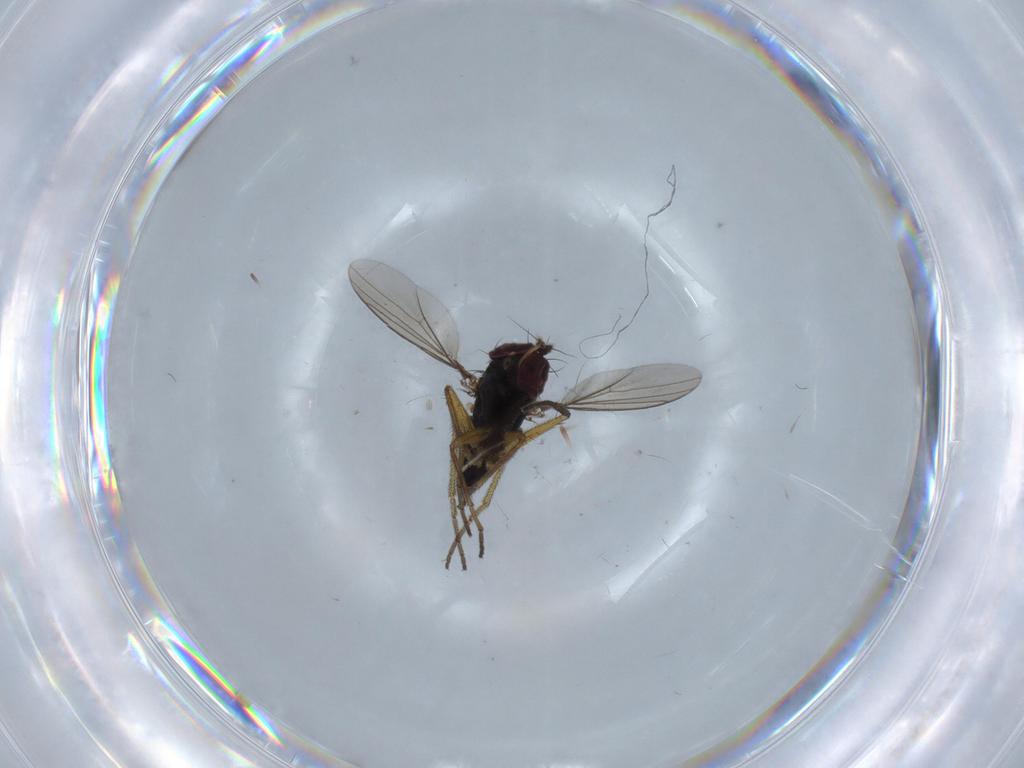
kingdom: Animalia
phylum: Arthropoda
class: Insecta
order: Diptera
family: Dolichopodidae
